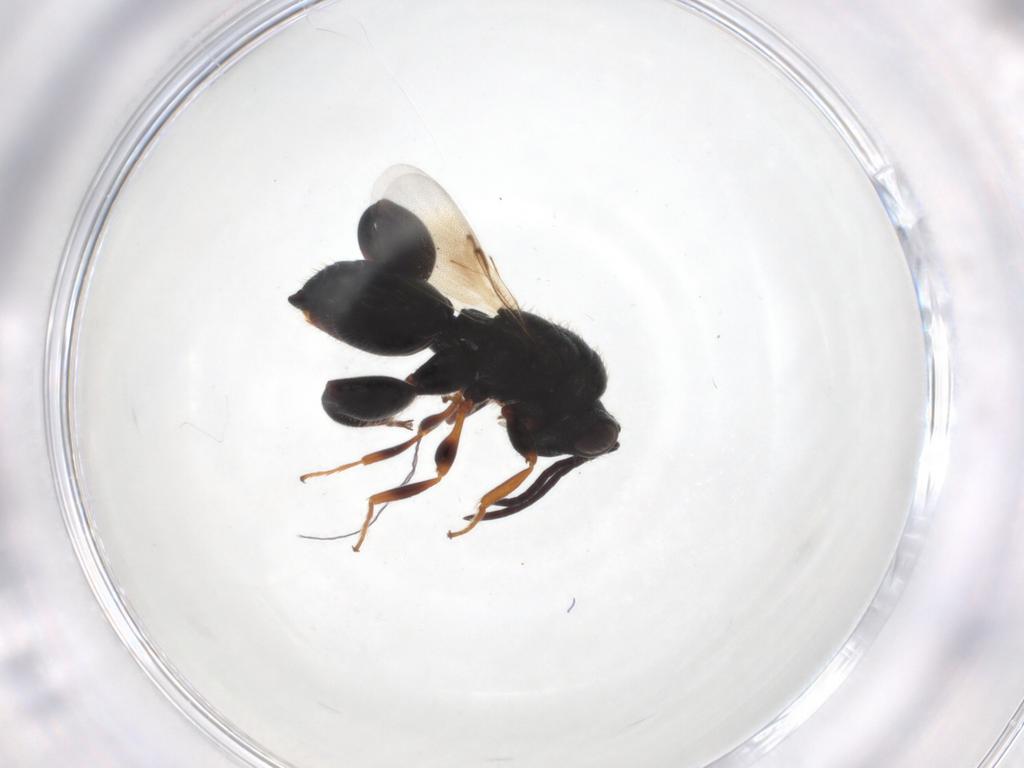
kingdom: Animalia
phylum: Arthropoda
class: Insecta
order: Hymenoptera
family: Chalcididae
